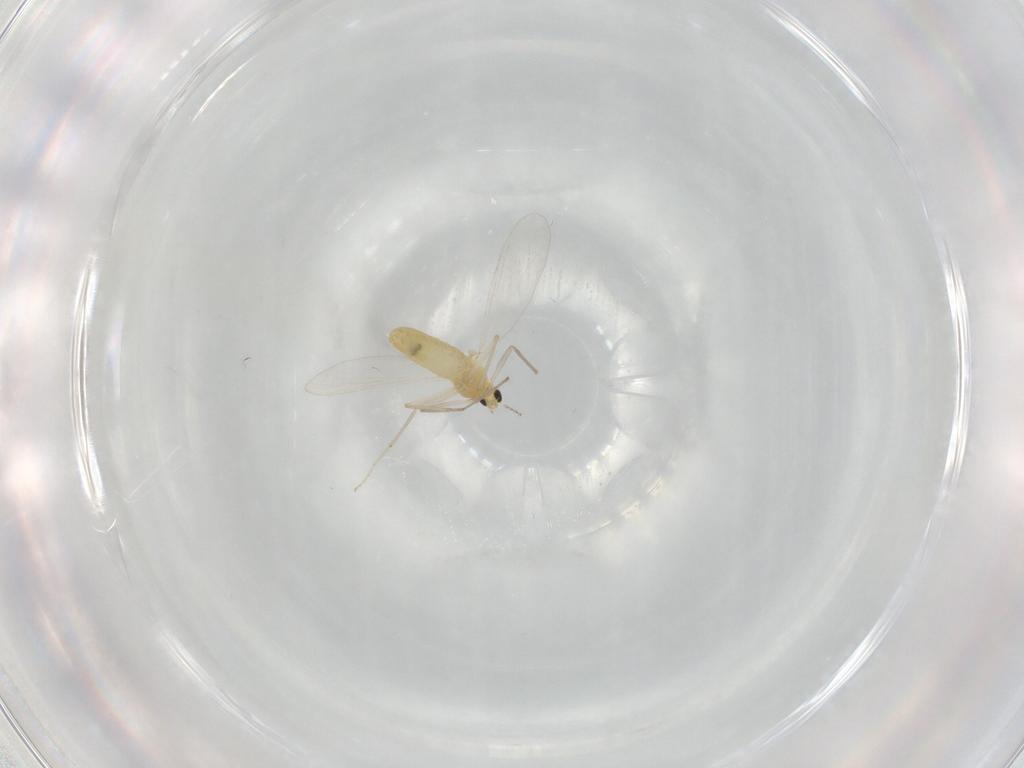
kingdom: Animalia
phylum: Arthropoda
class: Insecta
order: Diptera
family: Chironomidae
